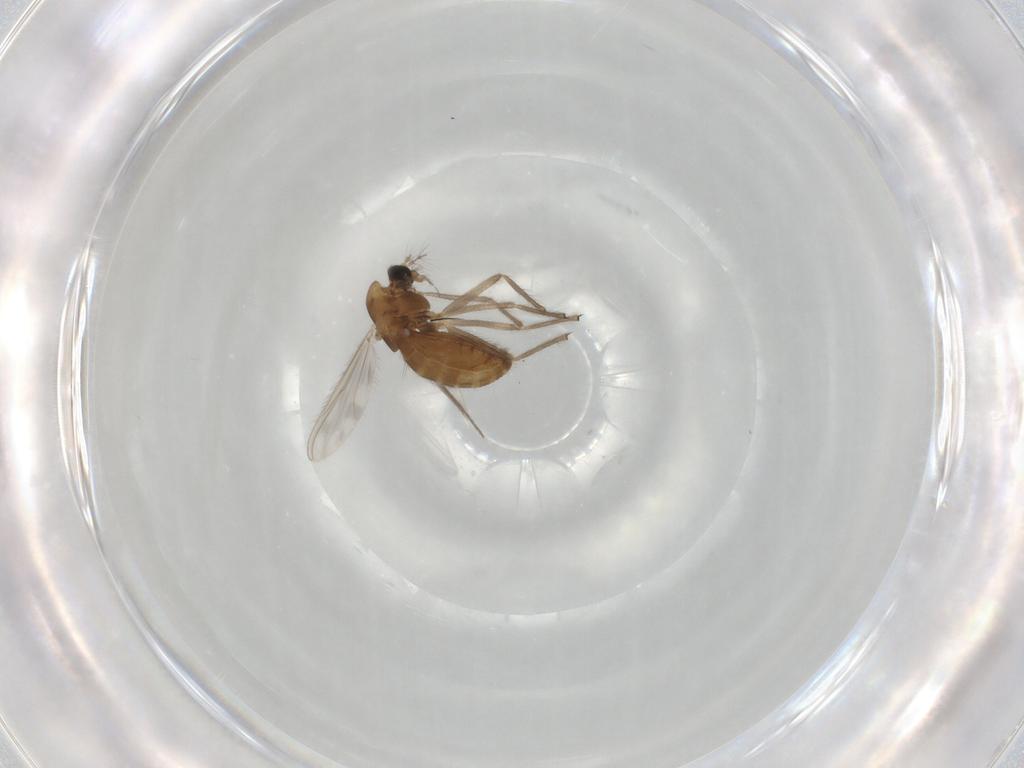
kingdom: Animalia
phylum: Arthropoda
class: Insecta
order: Diptera
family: Chironomidae
